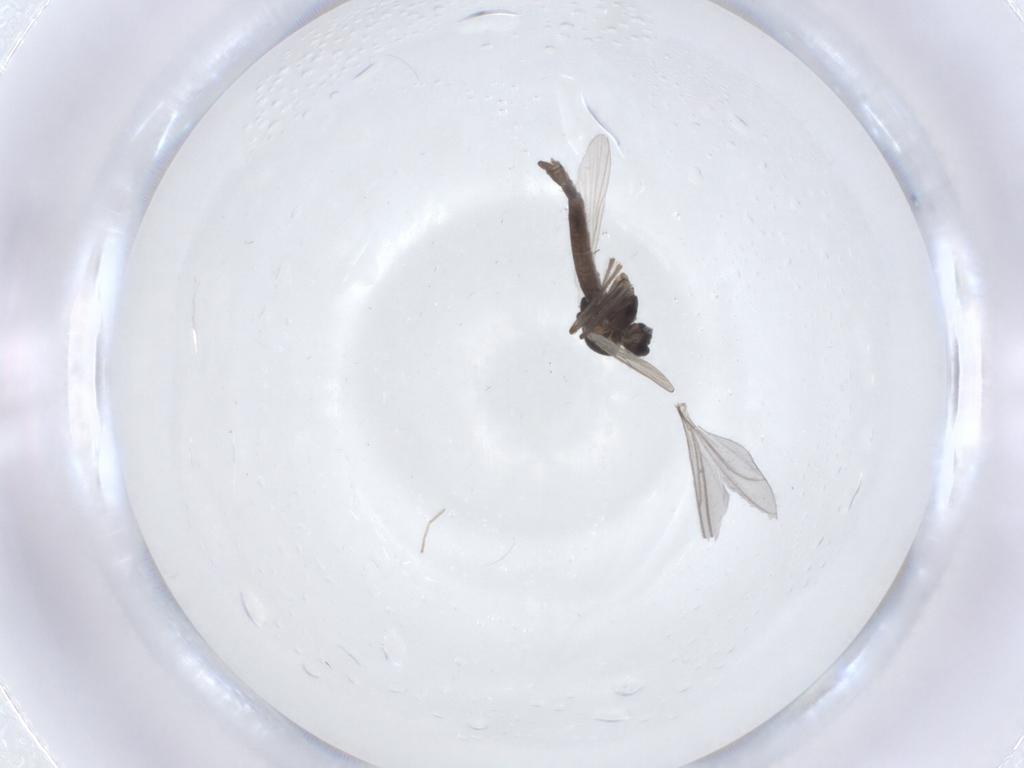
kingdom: Animalia
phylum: Arthropoda
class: Insecta
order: Diptera
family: Chironomidae
